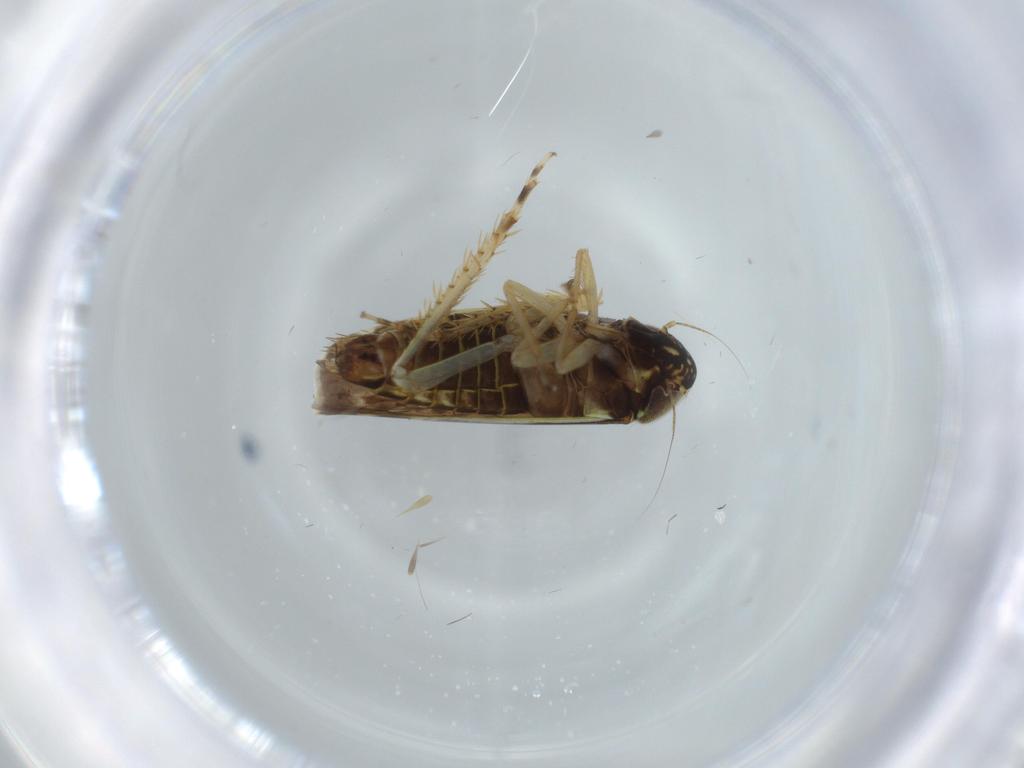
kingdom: Animalia
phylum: Arthropoda
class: Insecta
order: Hemiptera
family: Cicadellidae
